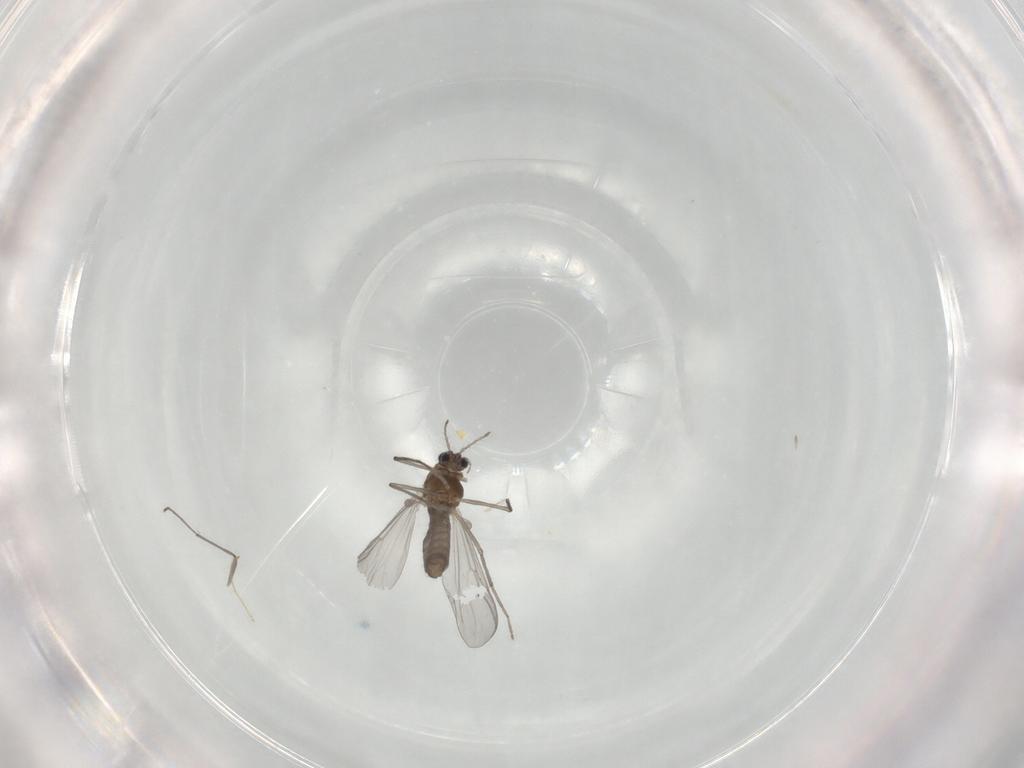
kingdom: Animalia
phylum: Arthropoda
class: Insecta
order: Diptera
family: Chironomidae
